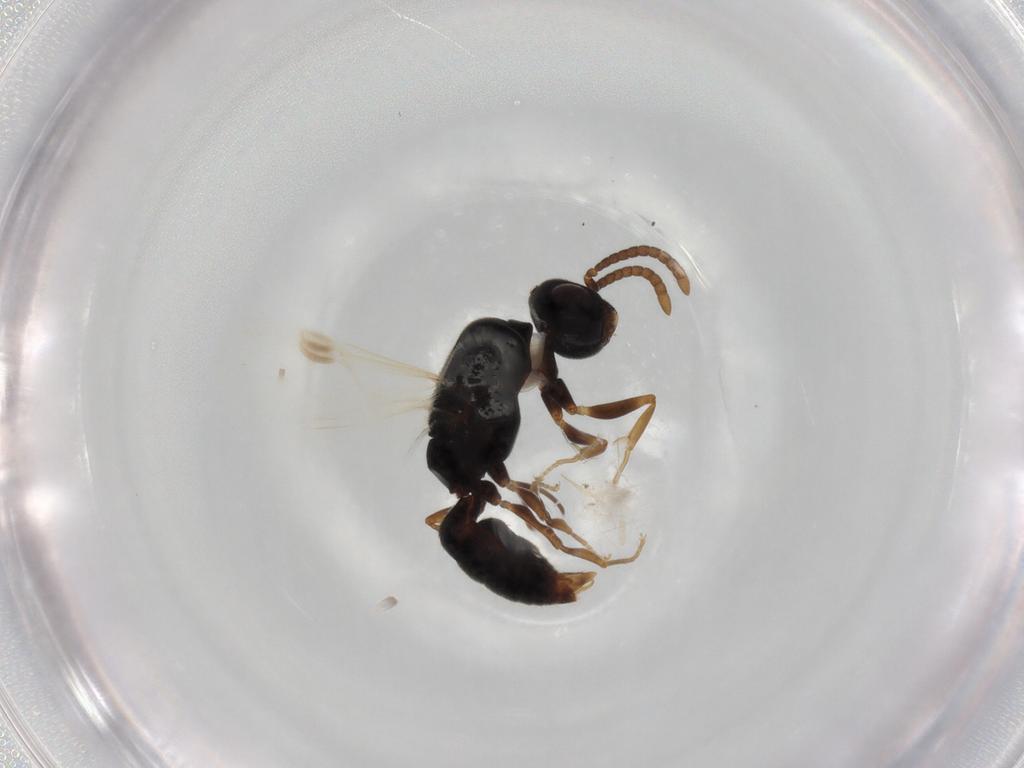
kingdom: Animalia
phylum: Arthropoda
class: Insecta
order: Hymenoptera
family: Formicidae
